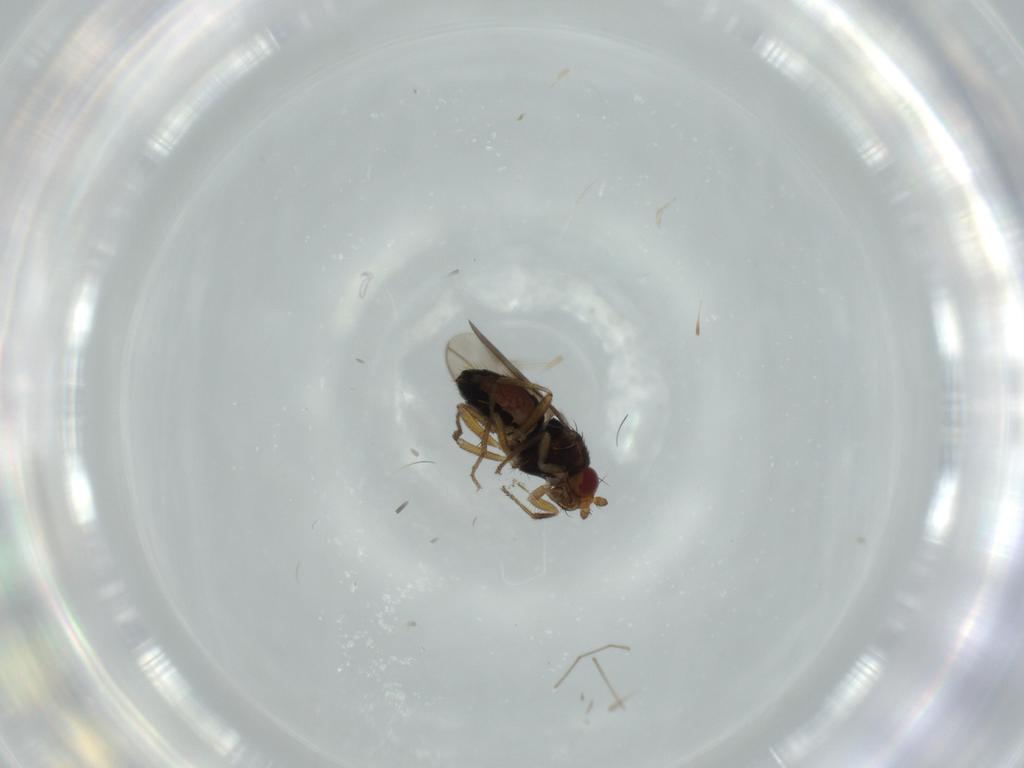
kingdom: Animalia
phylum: Arthropoda
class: Insecta
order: Diptera
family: Sphaeroceridae
